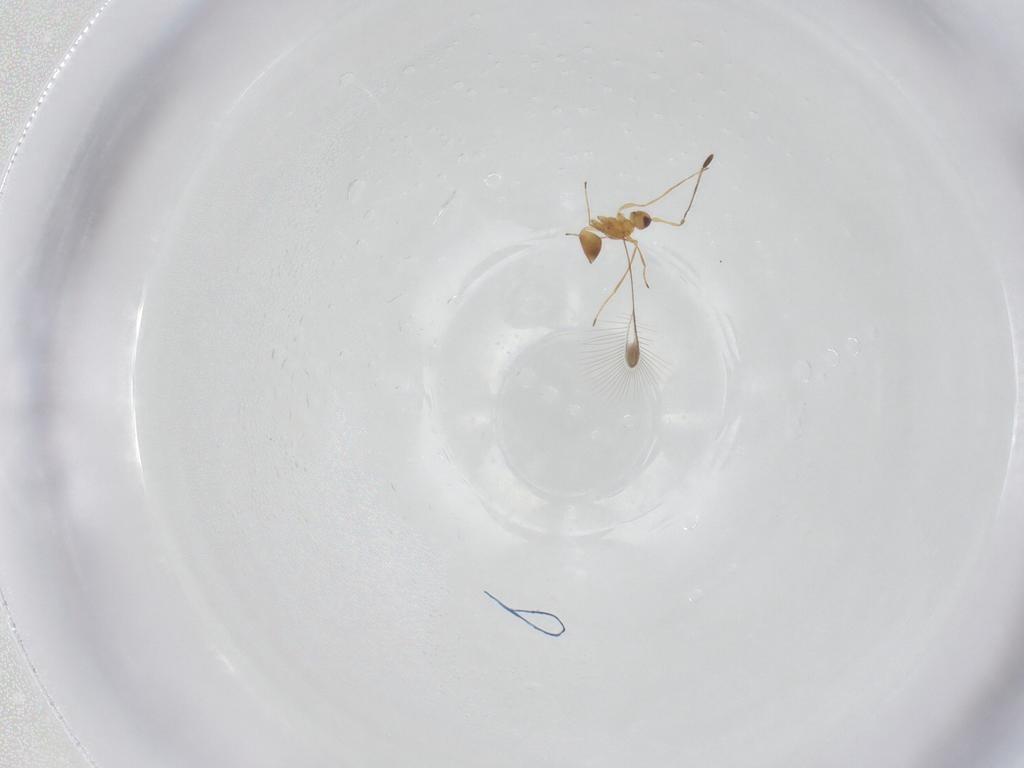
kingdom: Animalia
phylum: Arthropoda
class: Insecta
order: Hymenoptera
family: Mymaridae
